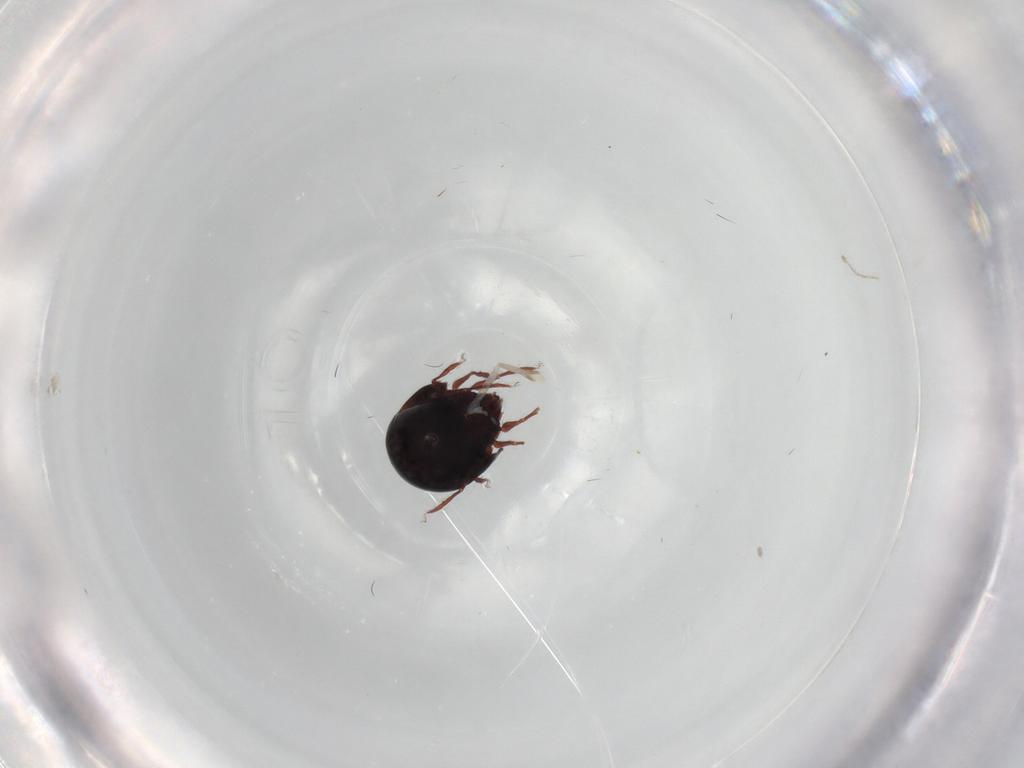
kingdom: Animalia
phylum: Arthropoda
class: Arachnida
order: Sarcoptiformes
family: Mochlozetidae
